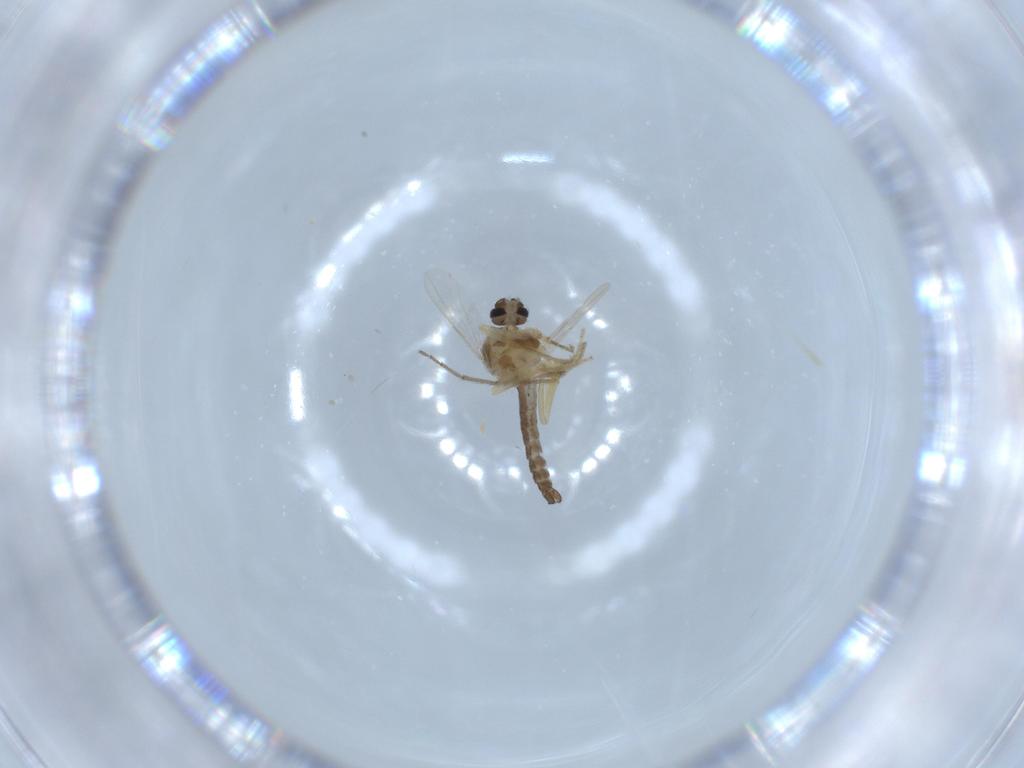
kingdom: Animalia
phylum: Arthropoda
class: Insecta
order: Diptera
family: Ceratopogonidae
